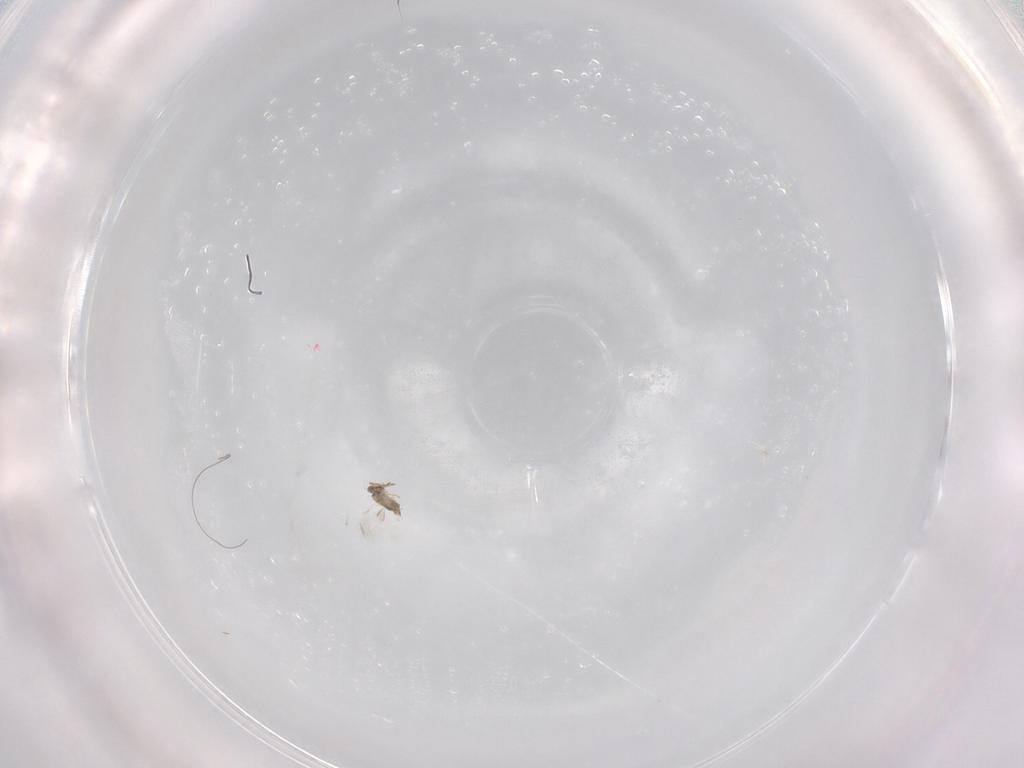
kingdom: Animalia
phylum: Arthropoda
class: Insecta
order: Hymenoptera
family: Aphelinidae
